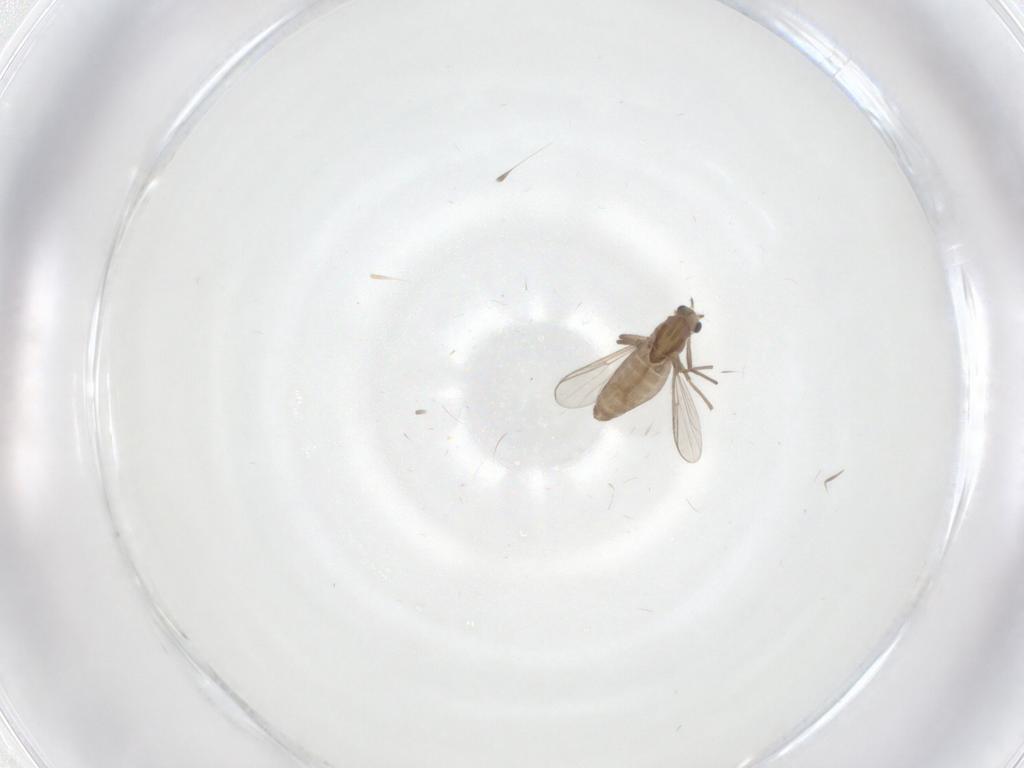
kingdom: Animalia
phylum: Arthropoda
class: Insecta
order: Diptera
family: Chironomidae
